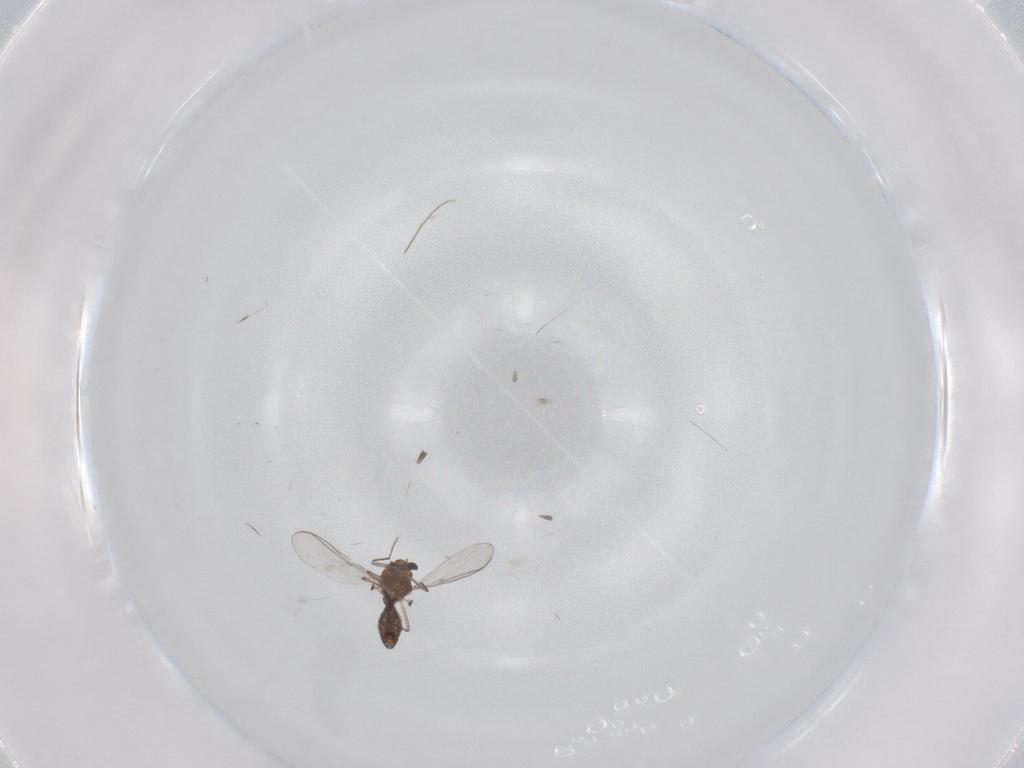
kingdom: Animalia
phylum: Arthropoda
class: Insecta
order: Diptera
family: Chironomidae
